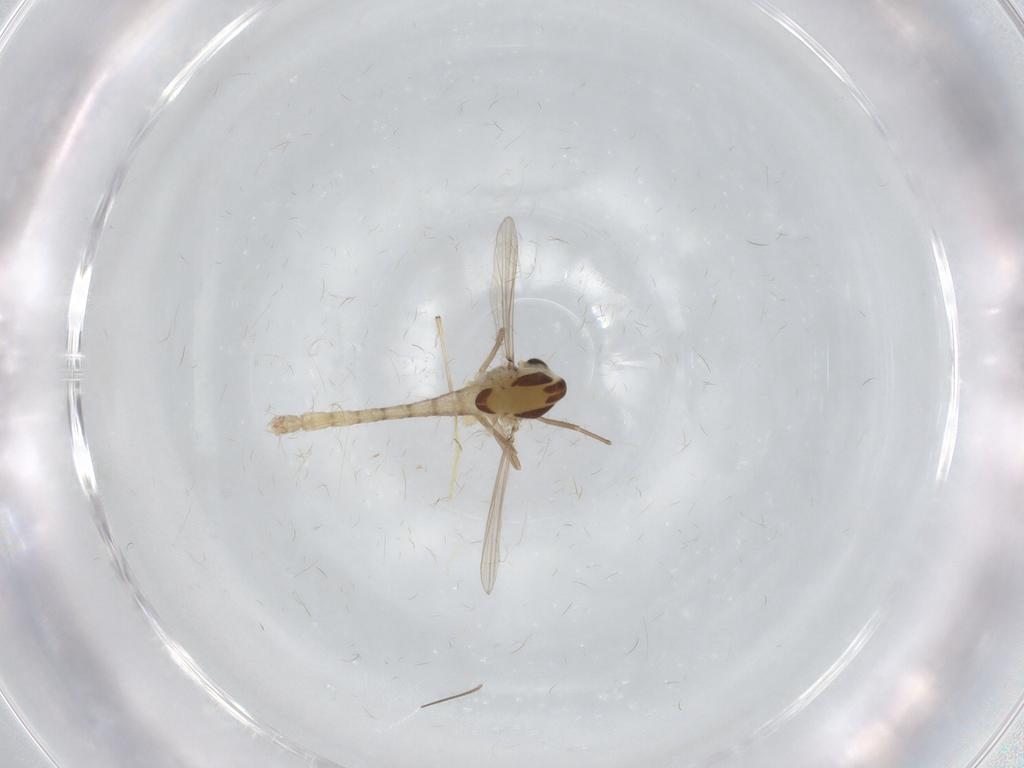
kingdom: Animalia
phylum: Arthropoda
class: Insecta
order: Diptera
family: Chironomidae
